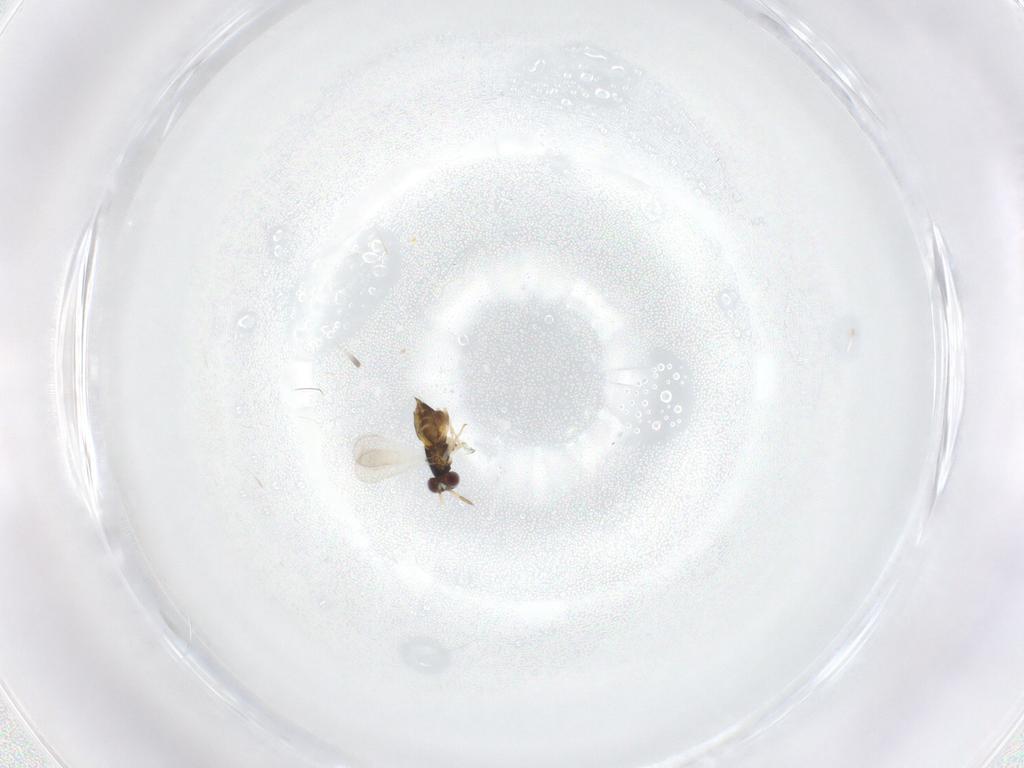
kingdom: Animalia
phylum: Arthropoda
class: Insecta
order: Hymenoptera
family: Aphelinidae
